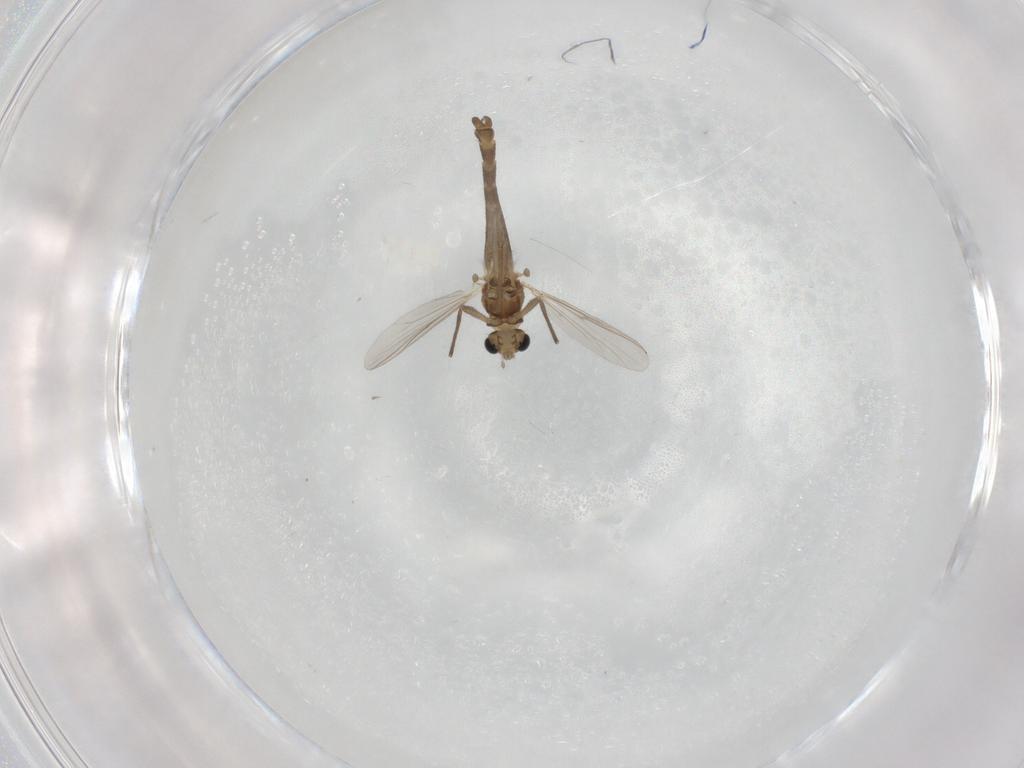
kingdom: Animalia
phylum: Arthropoda
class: Insecta
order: Diptera
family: Chironomidae
